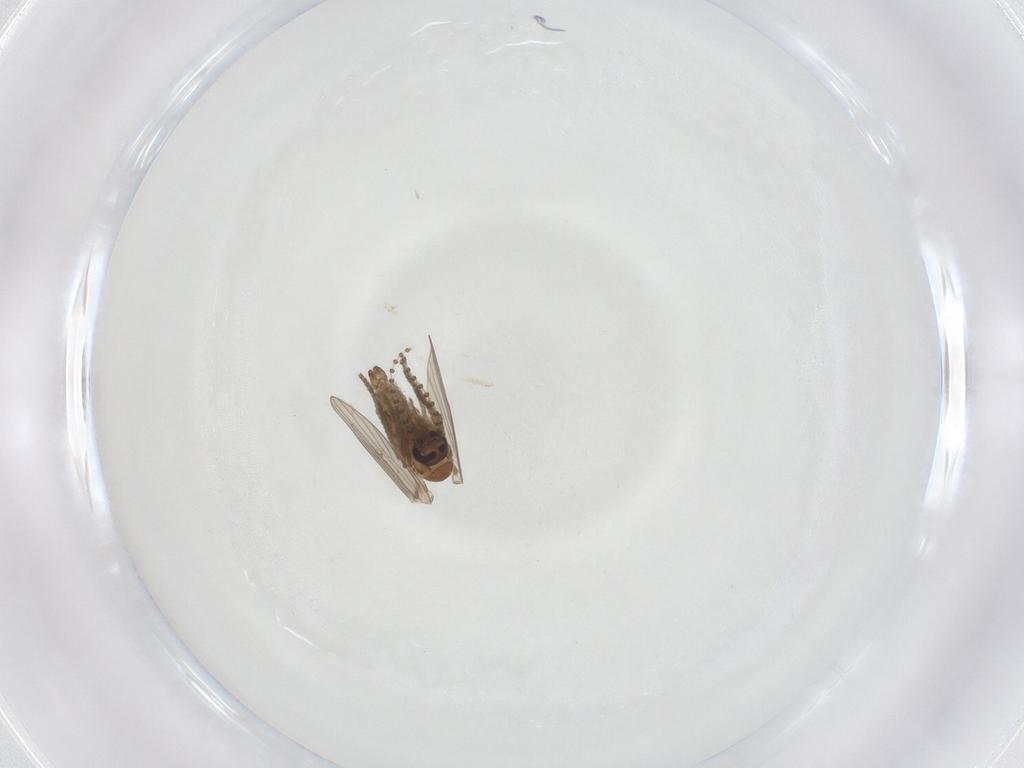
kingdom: Animalia
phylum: Arthropoda
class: Insecta
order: Diptera
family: Psychodidae
